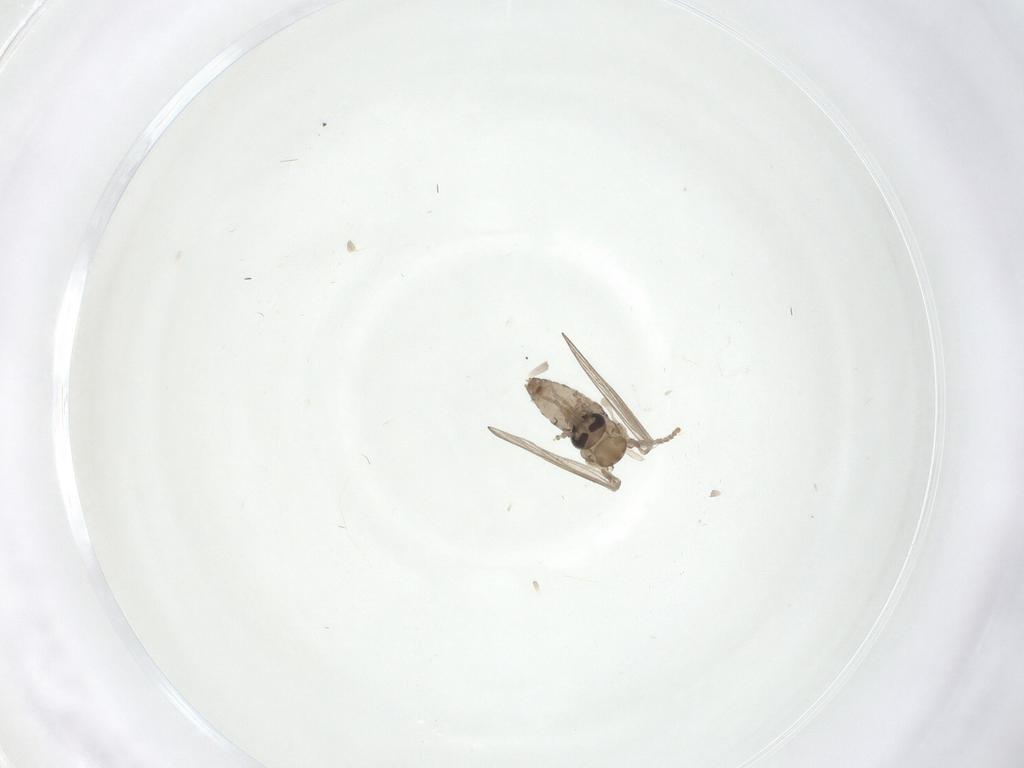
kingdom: Animalia
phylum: Arthropoda
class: Insecta
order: Diptera
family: Psychodidae
